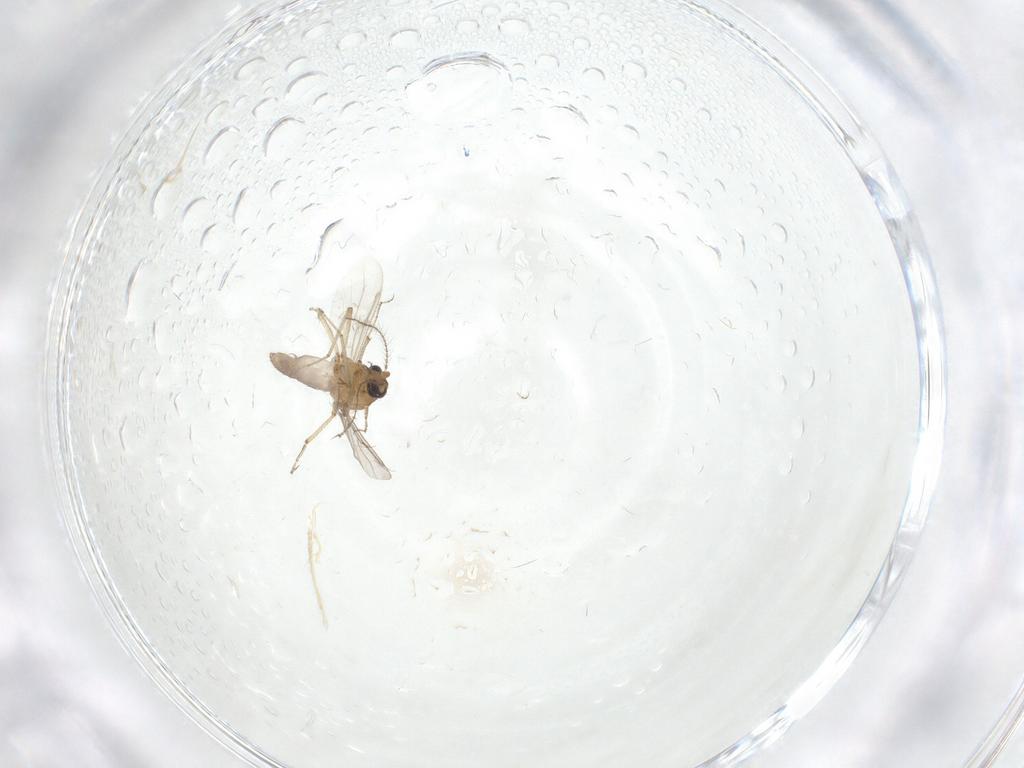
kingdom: Animalia
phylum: Arthropoda
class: Insecta
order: Diptera
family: Ceratopogonidae
